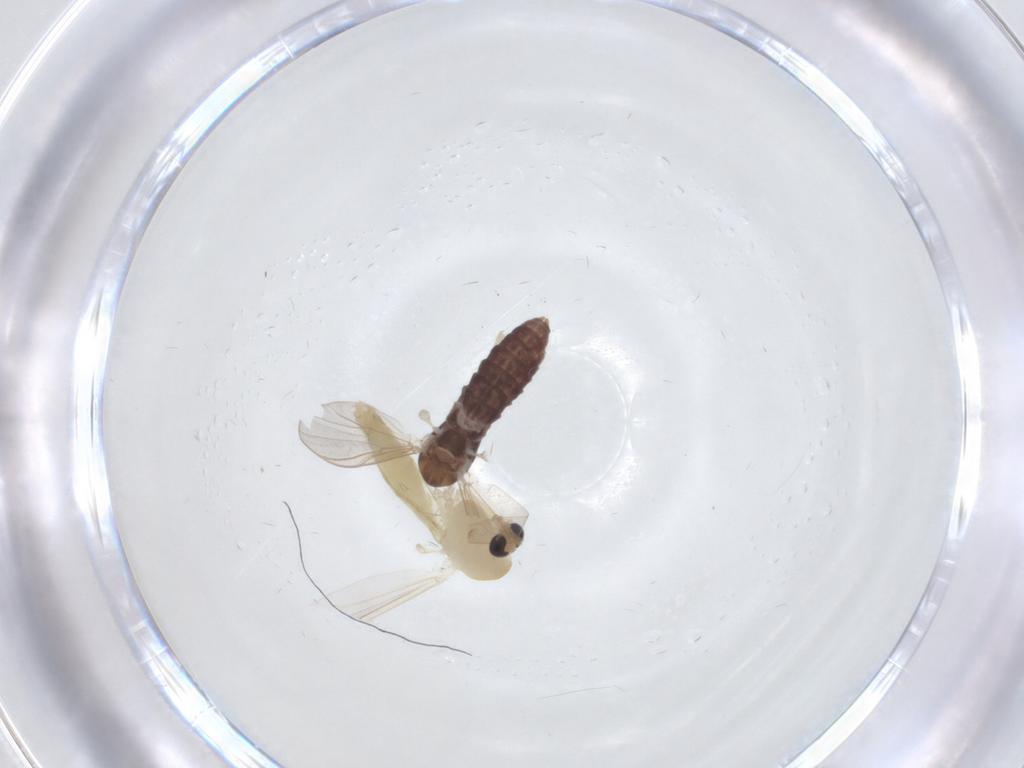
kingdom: Animalia
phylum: Arthropoda
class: Insecta
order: Diptera
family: Chironomidae
